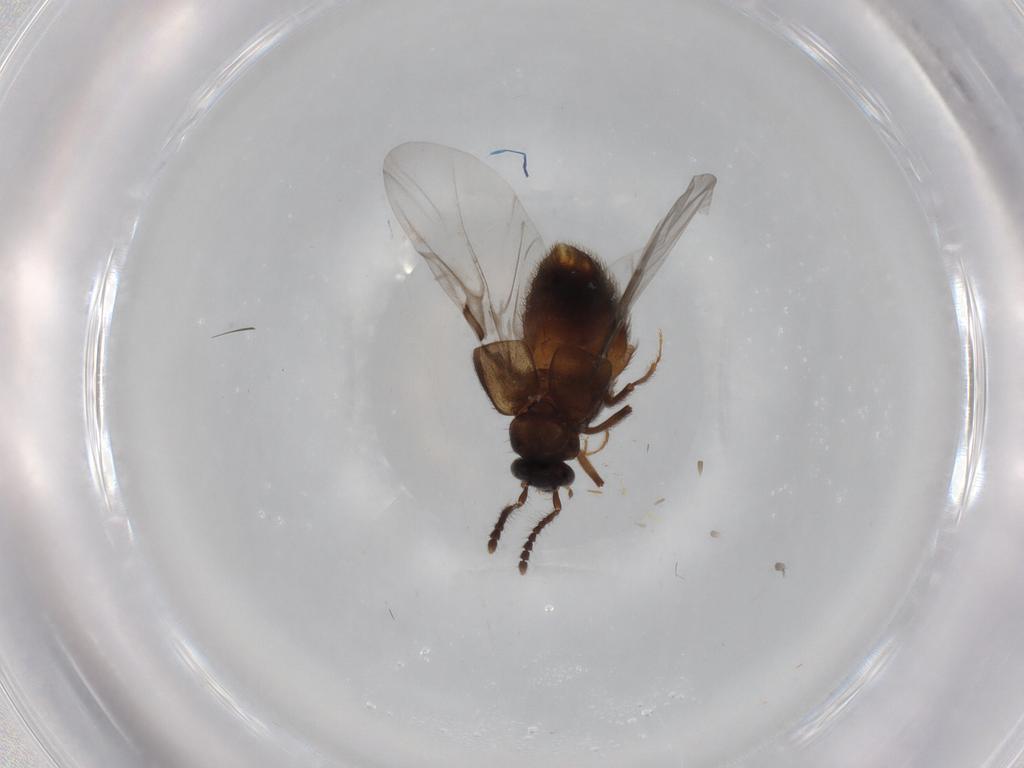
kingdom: Animalia
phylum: Arthropoda
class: Insecta
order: Coleoptera
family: Staphylinidae
